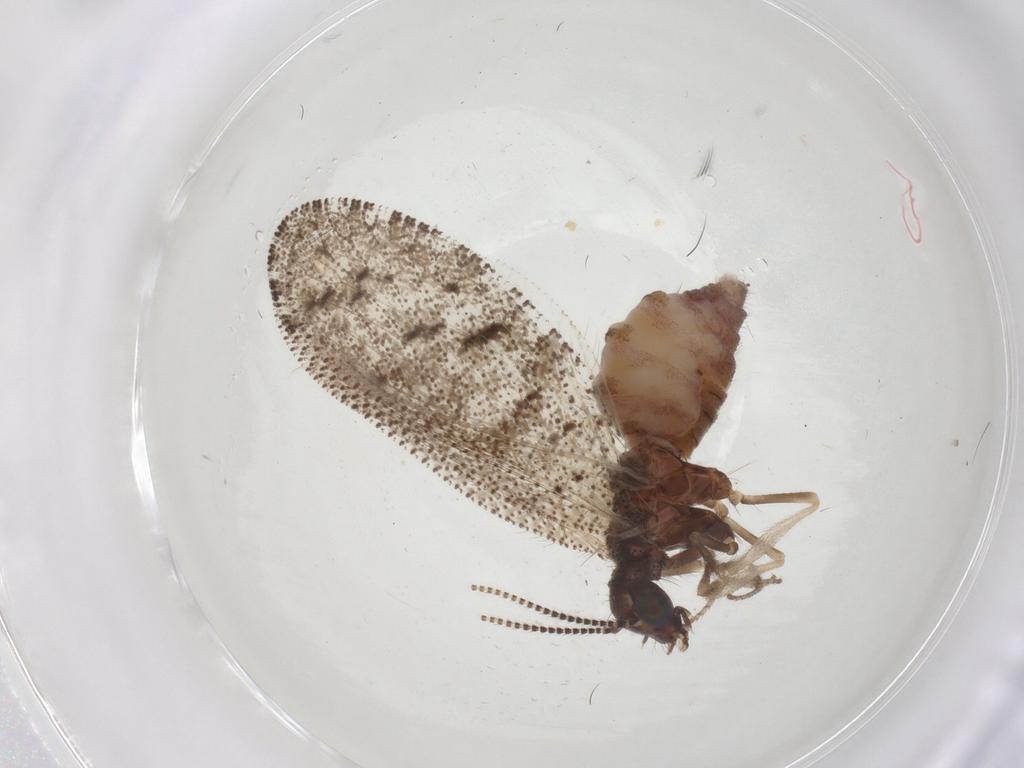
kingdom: Animalia
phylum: Arthropoda
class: Insecta
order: Neuroptera
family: Hemerobiidae
